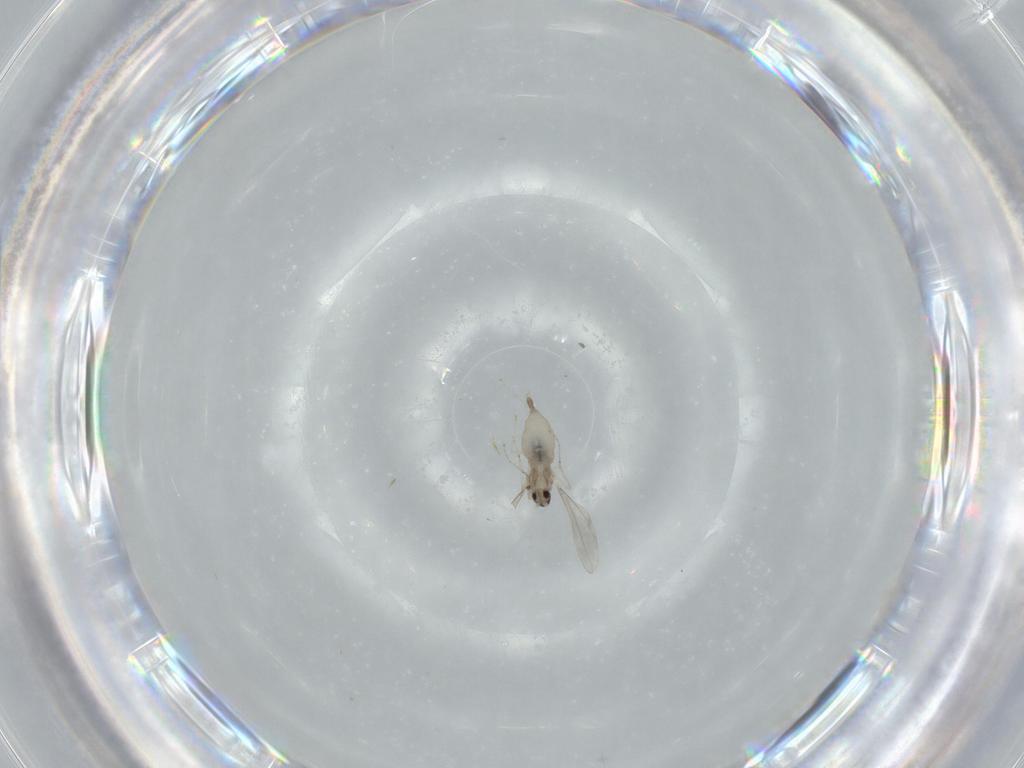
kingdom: Animalia
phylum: Arthropoda
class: Insecta
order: Diptera
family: Cecidomyiidae
